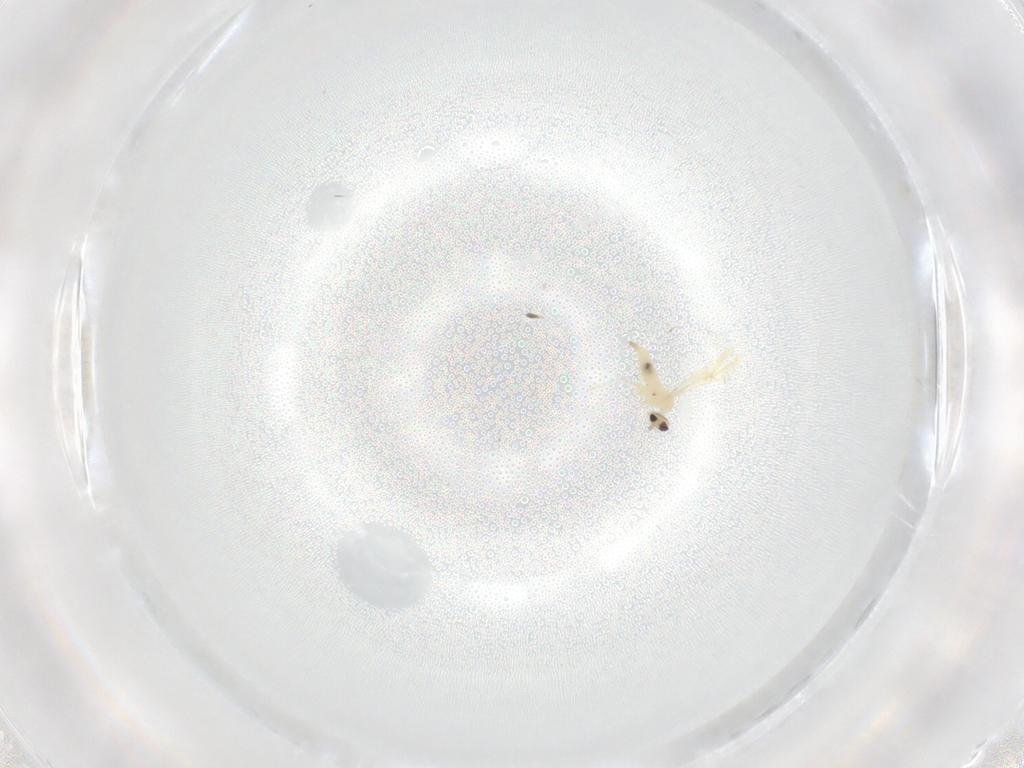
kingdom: Animalia
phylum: Arthropoda
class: Insecta
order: Diptera
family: Cecidomyiidae
